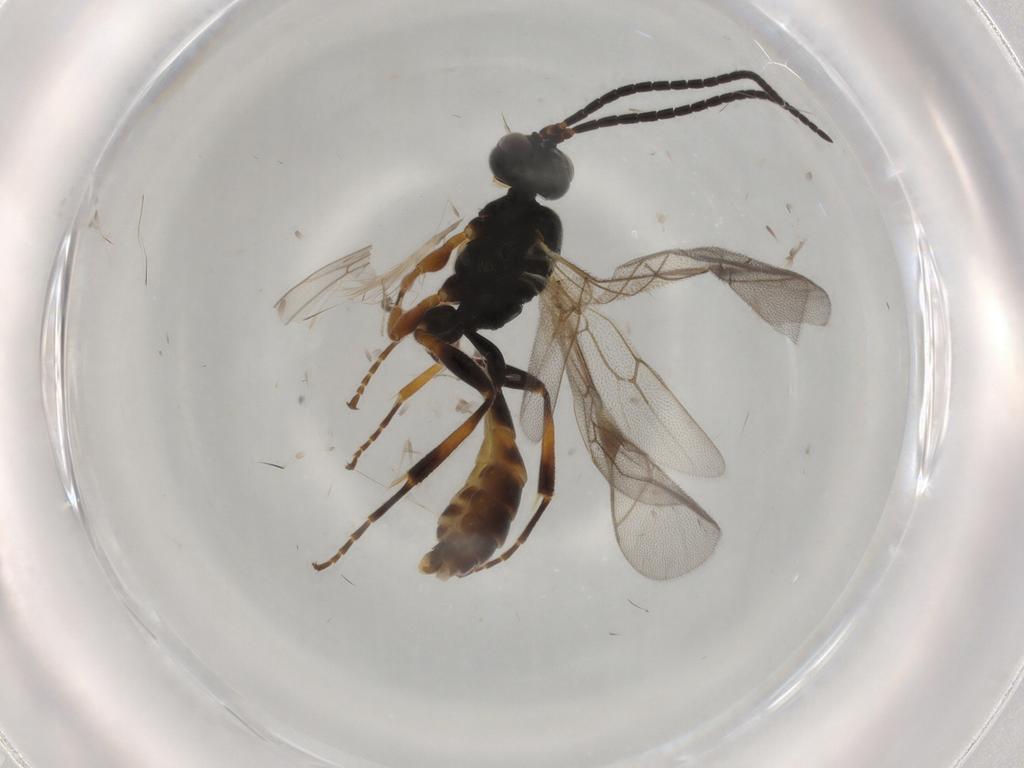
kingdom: Animalia
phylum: Arthropoda
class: Insecta
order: Hymenoptera
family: Ichneumonidae
